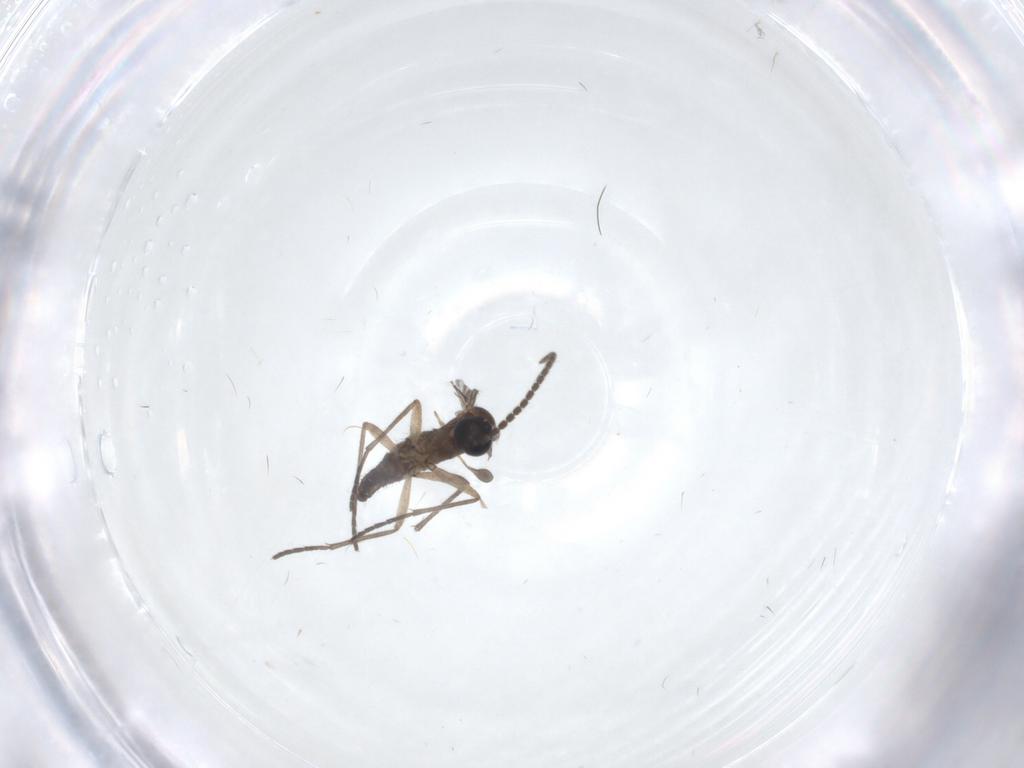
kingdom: Animalia
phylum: Arthropoda
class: Insecta
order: Diptera
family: Sciaridae
